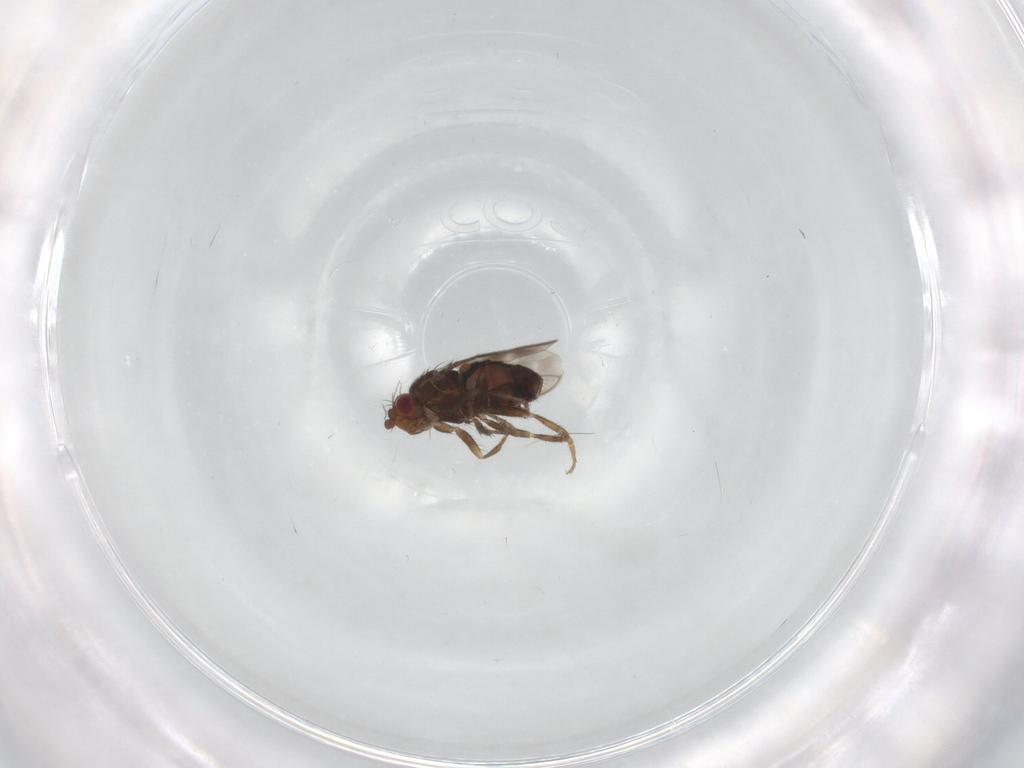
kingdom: Animalia
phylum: Arthropoda
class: Insecta
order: Diptera
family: Sphaeroceridae
